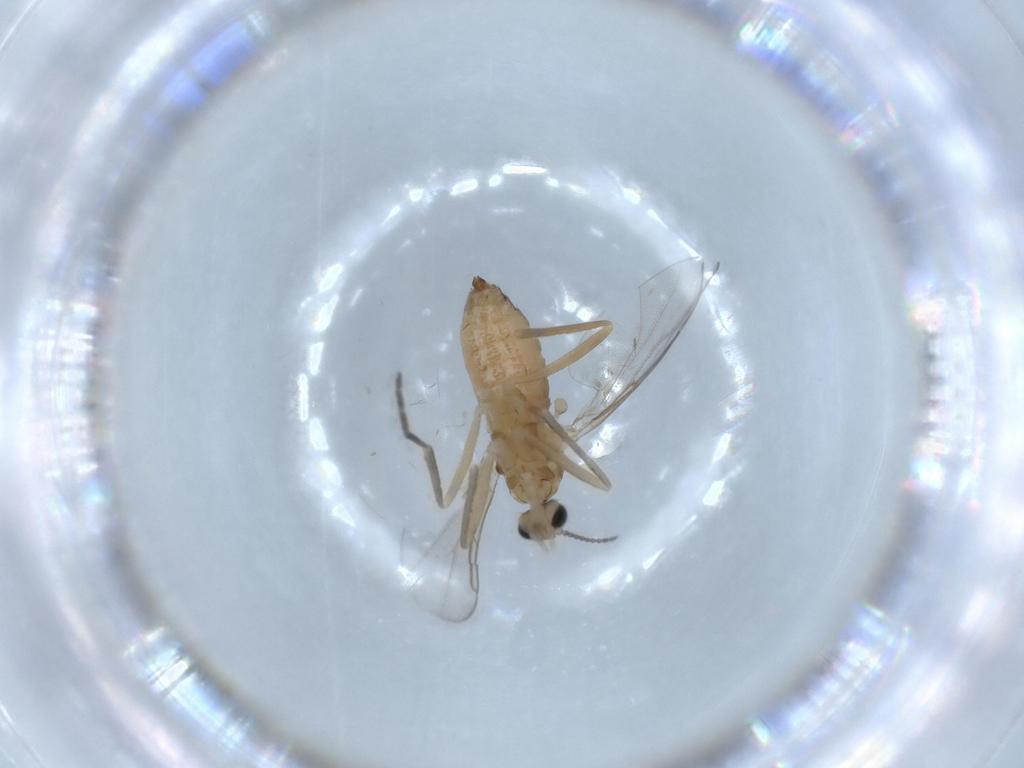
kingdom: Animalia
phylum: Arthropoda
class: Insecta
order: Diptera
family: Cecidomyiidae
